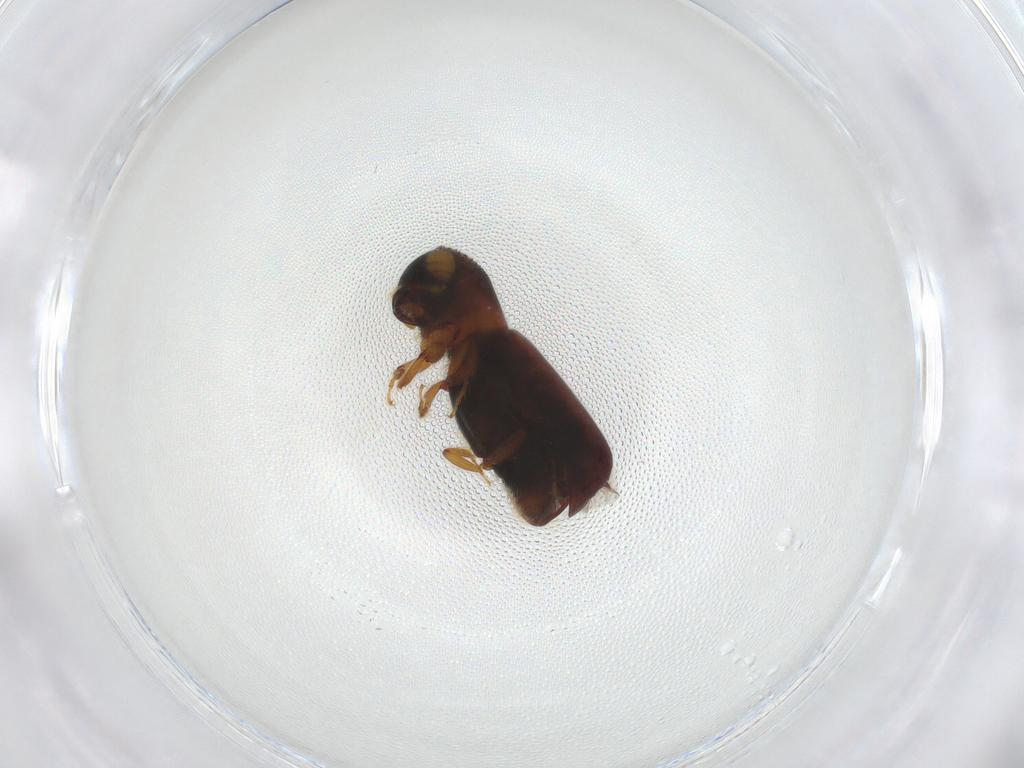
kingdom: Animalia
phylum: Arthropoda
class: Insecta
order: Coleoptera
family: Curculionidae
